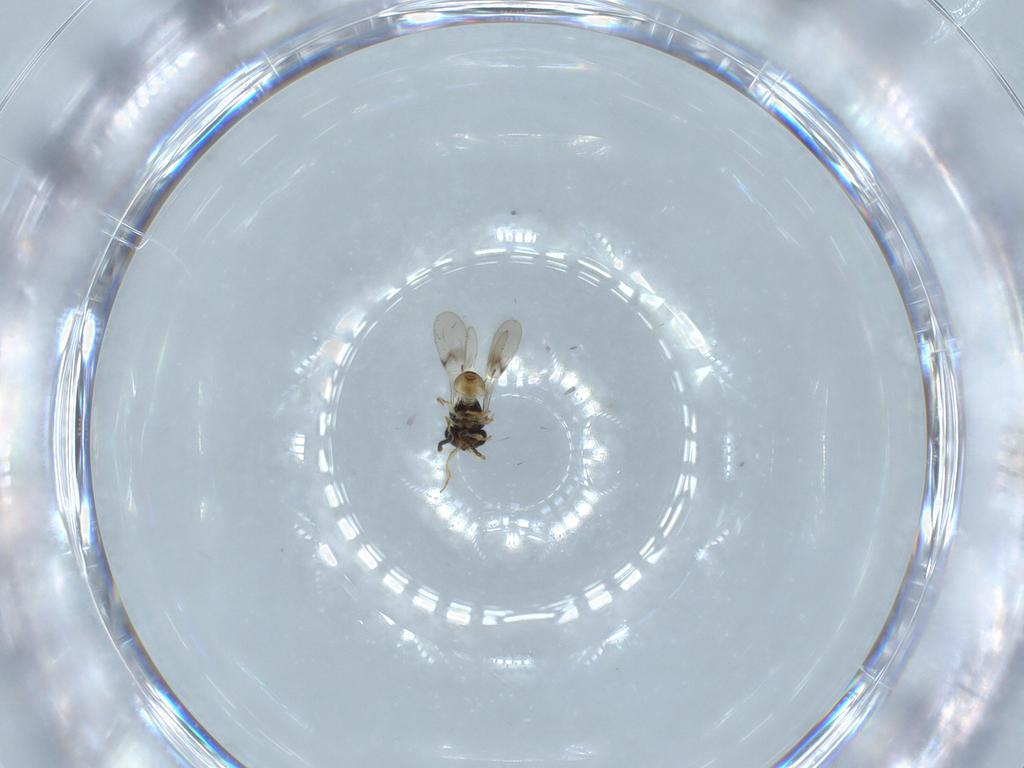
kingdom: Animalia
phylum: Arthropoda
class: Insecta
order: Hymenoptera
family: Scelionidae
